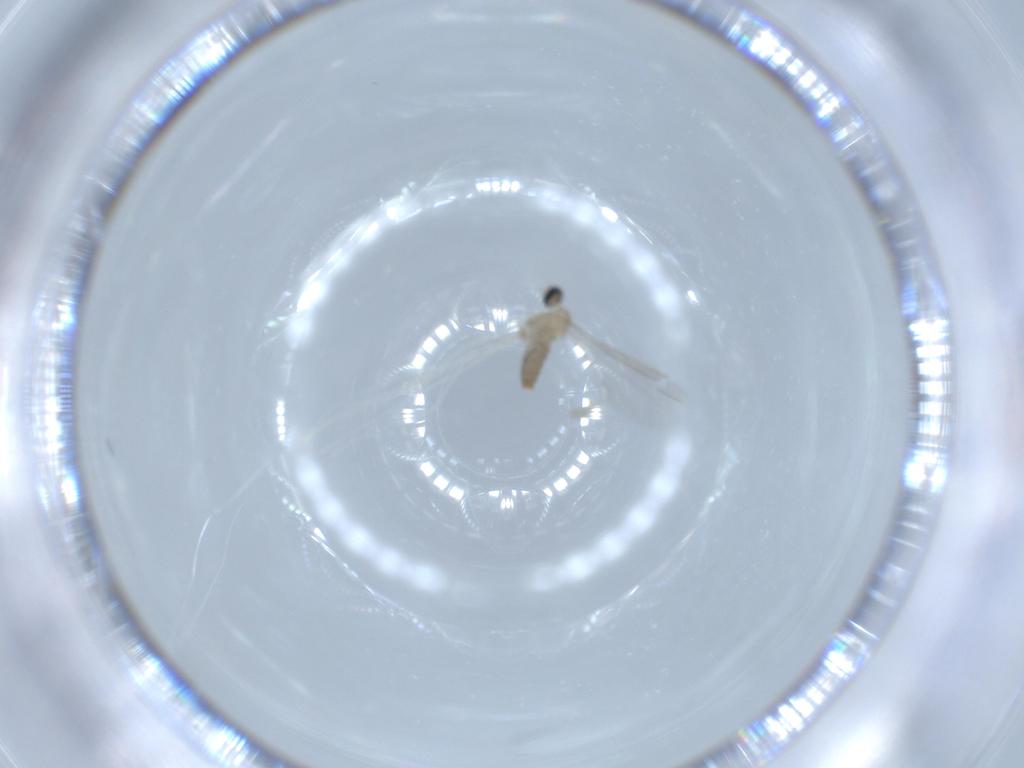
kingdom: Animalia
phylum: Arthropoda
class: Insecta
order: Diptera
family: Cecidomyiidae
